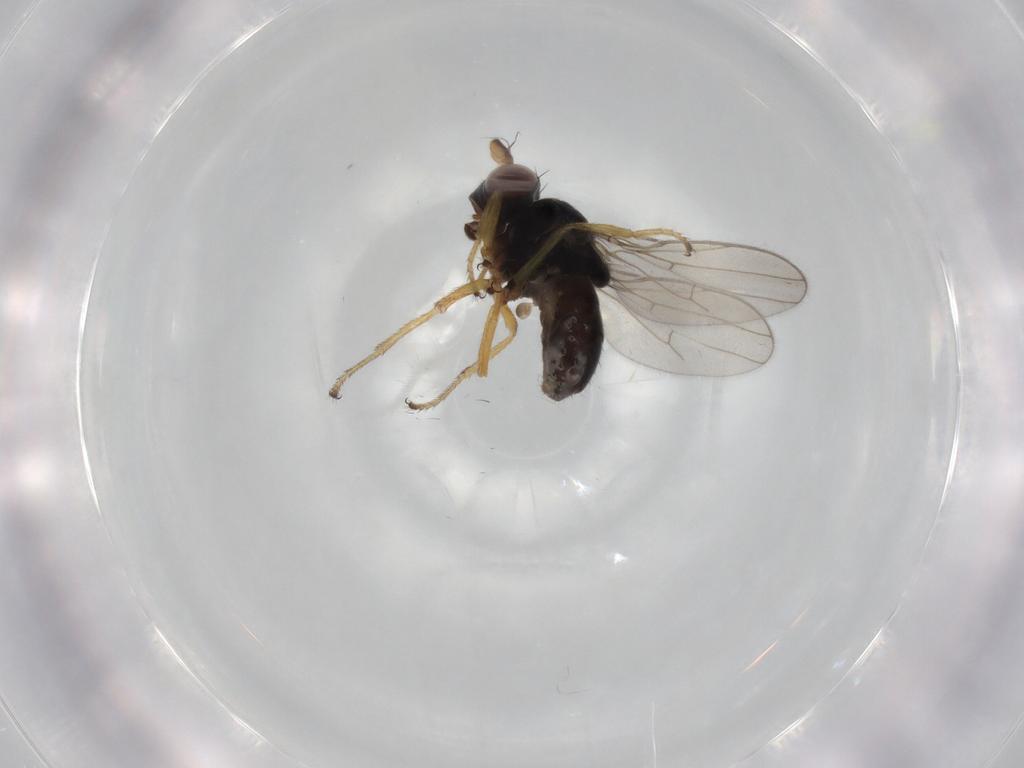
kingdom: Animalia
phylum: Arthropoda
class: Insecta
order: Diptera
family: Ephydridae
